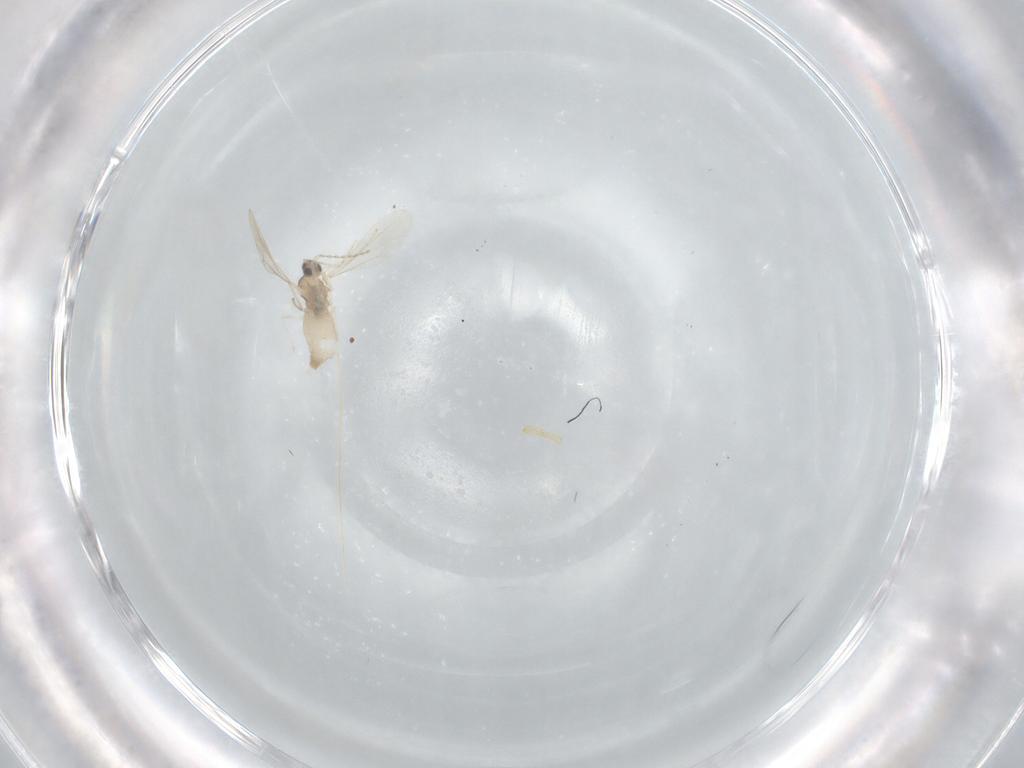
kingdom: Animalia
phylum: Arthropoda
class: Insecta
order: Diptera
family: Cecidomyiidae
